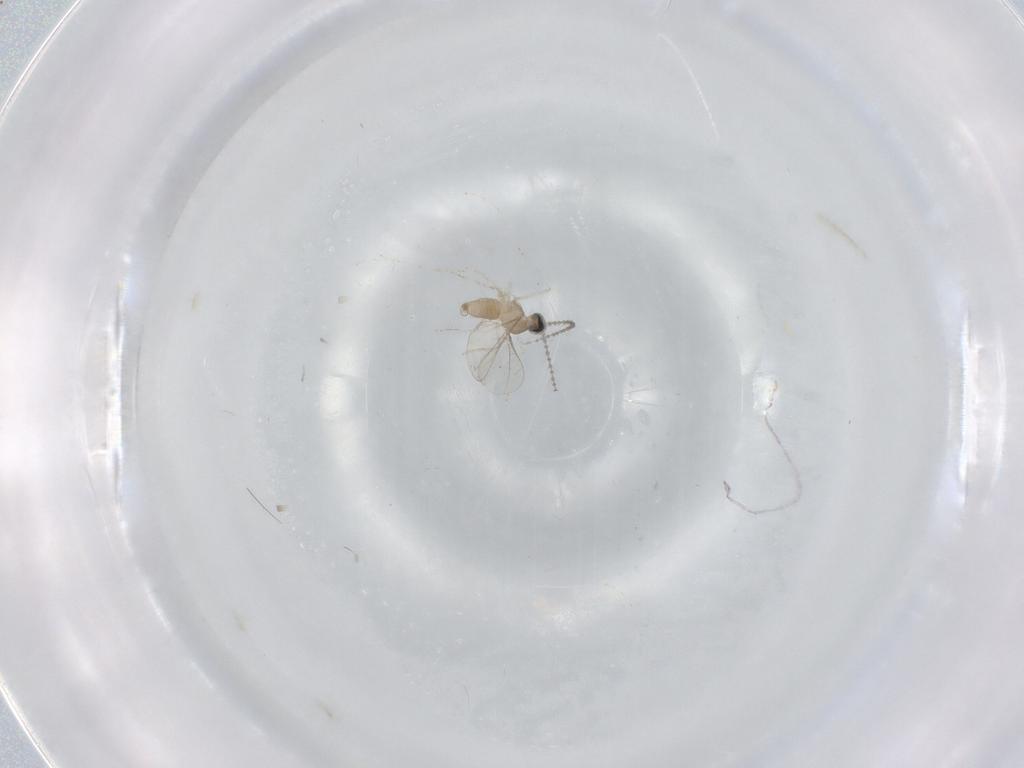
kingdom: Animalia
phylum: Arthropoda
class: Insecta
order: Diptera
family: Cecidomyiidae
